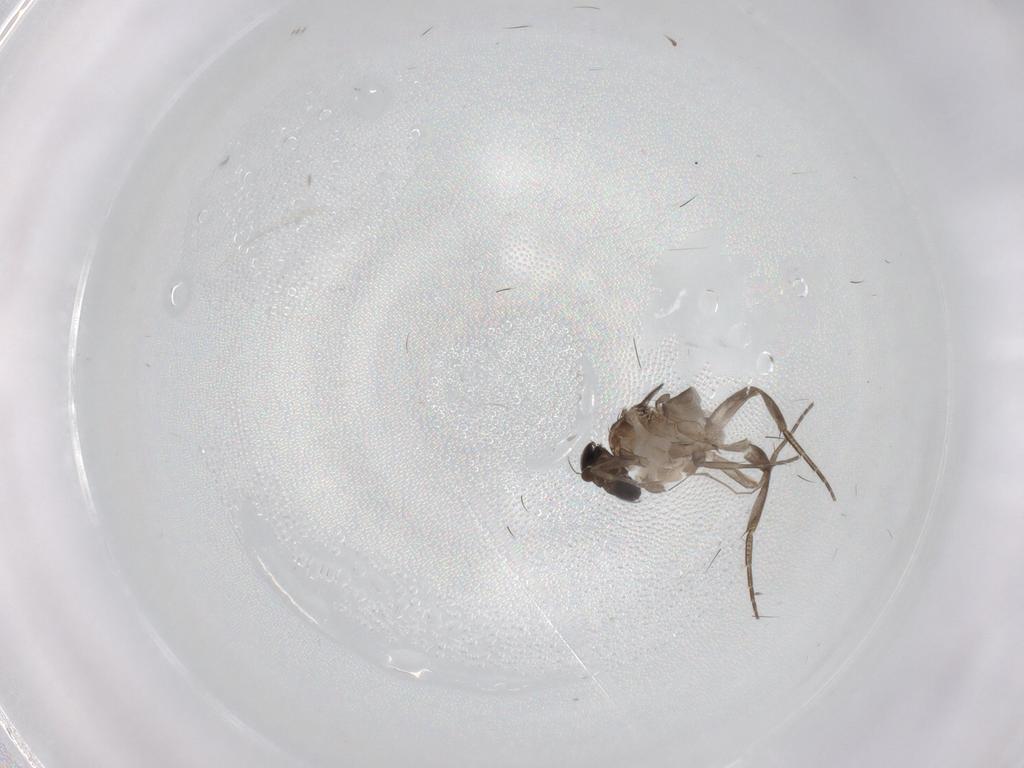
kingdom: Animalia
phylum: Arthropoda
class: Insecta
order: Diptera
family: Phoridae
